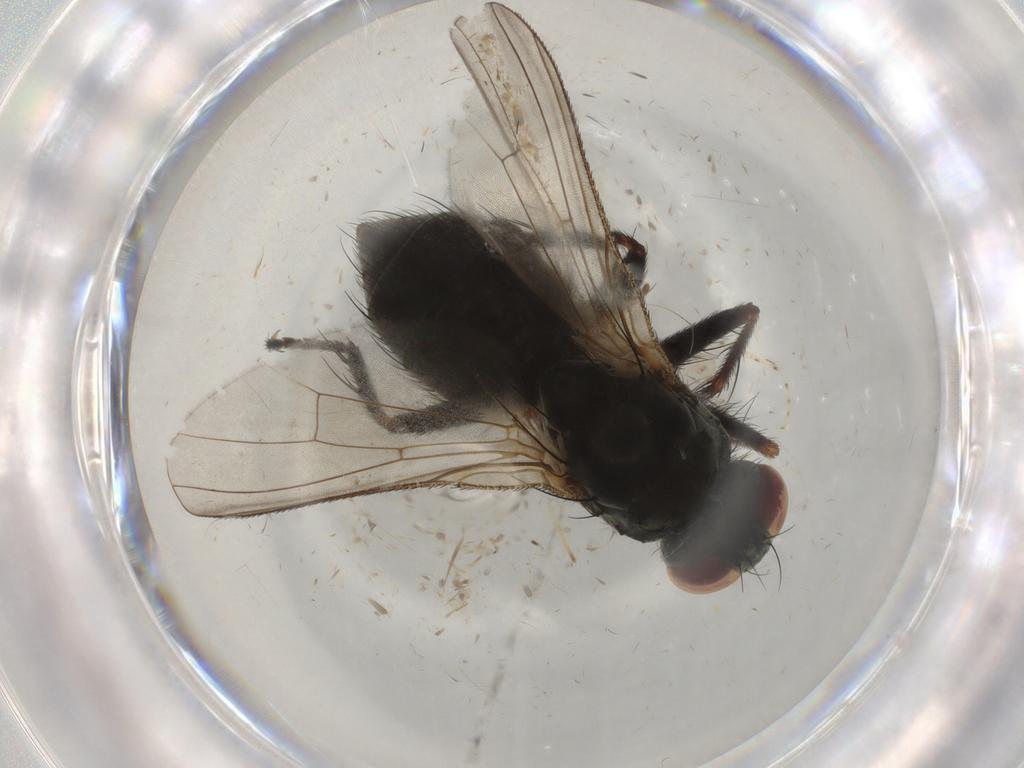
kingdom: Animalia
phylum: Arthropoda
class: Insecta
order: Diptera
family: Muscidae
